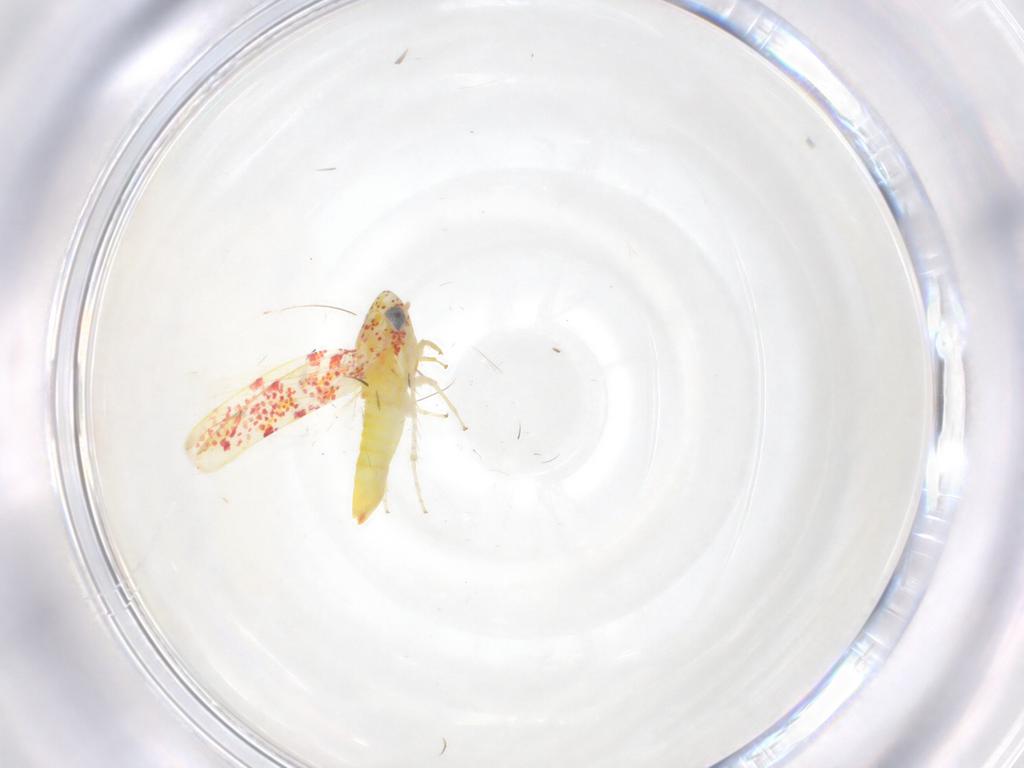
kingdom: Animalia
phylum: Arthropoda
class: Insecta
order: Hemiptera
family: Cicadellidae
